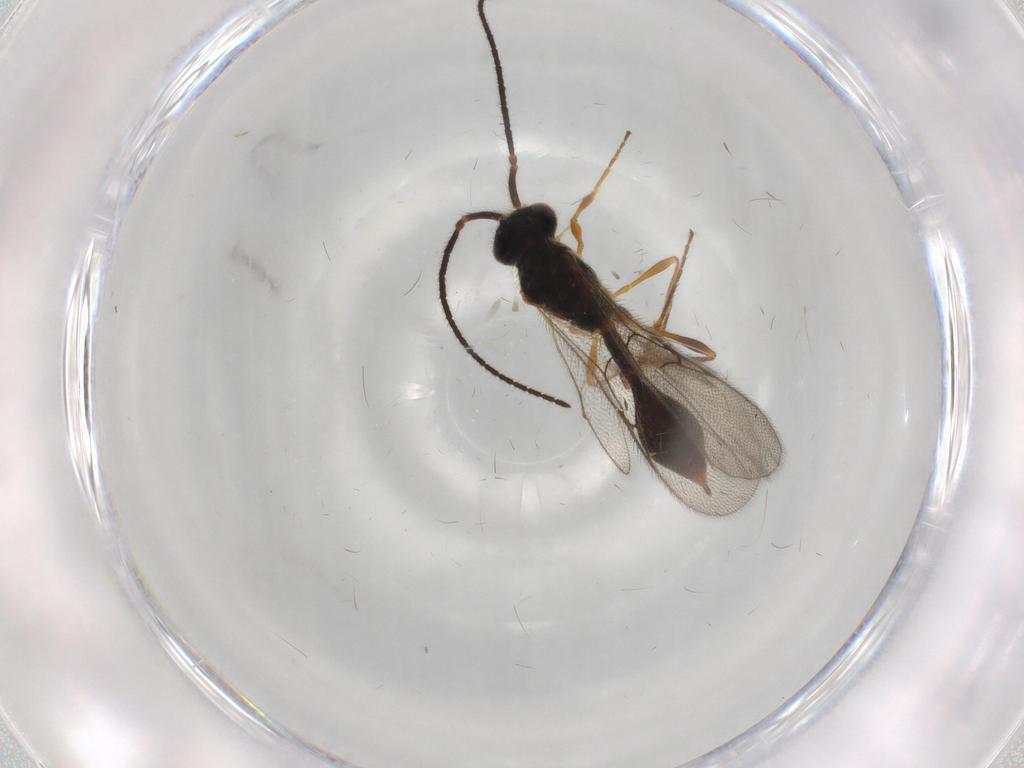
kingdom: Animalia
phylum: Arthropoda
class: Insecta
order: Hymenoptera
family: Diapriidae
